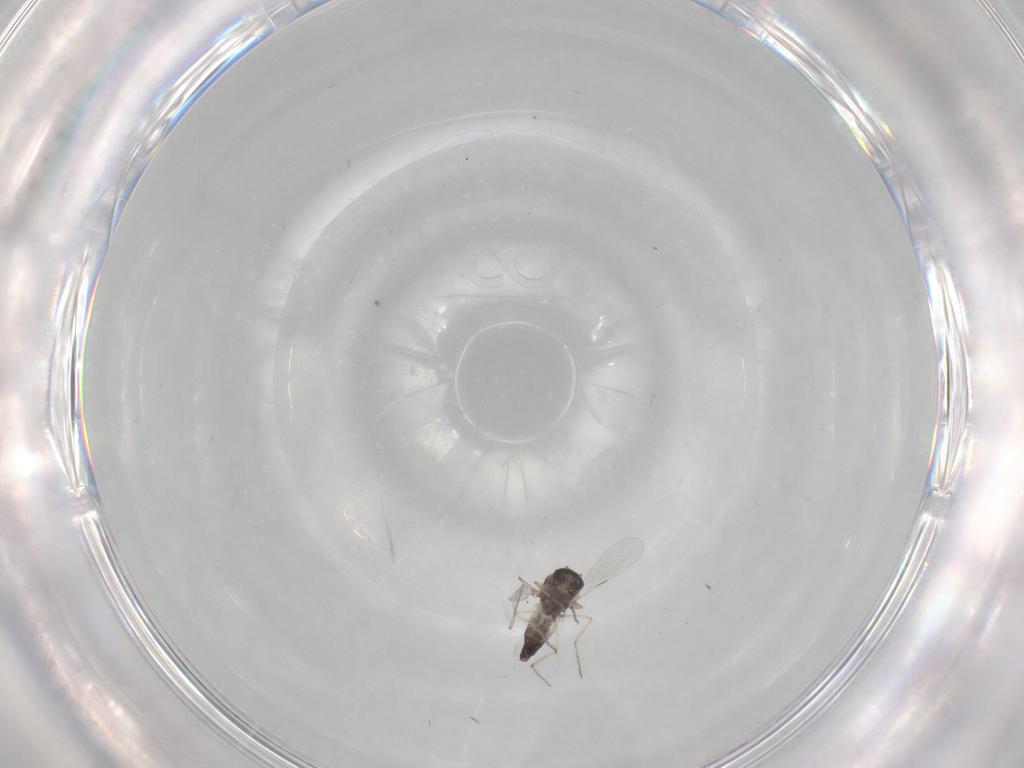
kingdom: Animalia
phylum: Arthropoda
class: Insecta
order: Diptera
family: Ceratopogonidae
